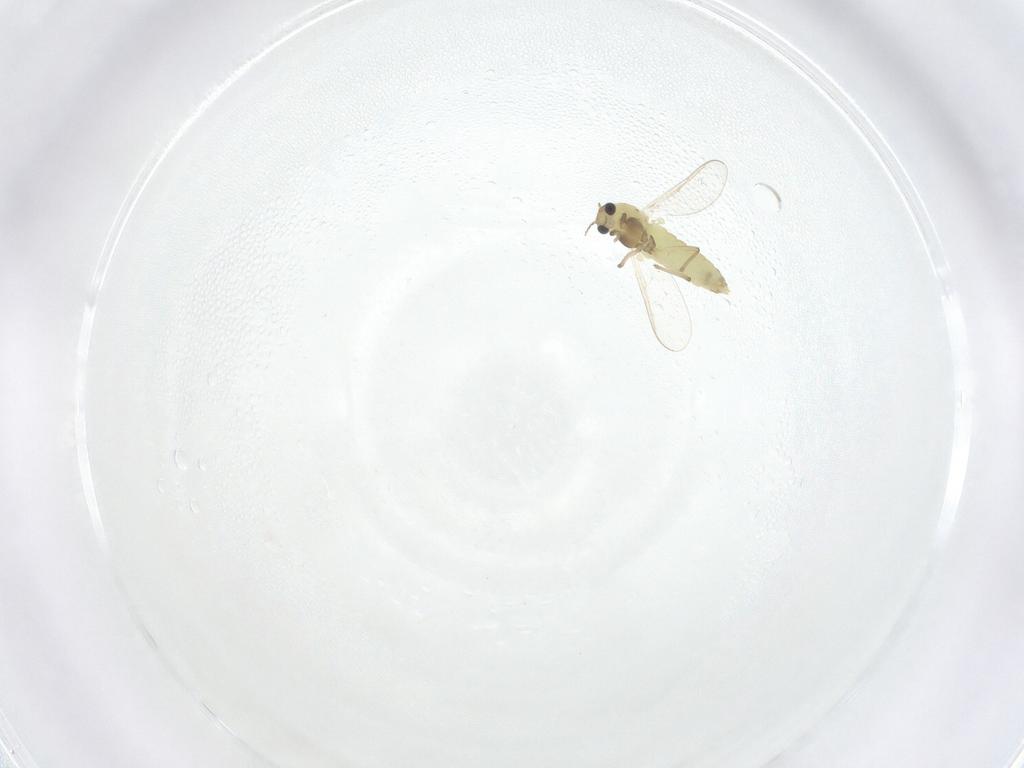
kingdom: Animalia
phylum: Arthropoda
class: Insecta
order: Diptera
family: Chironomidae
